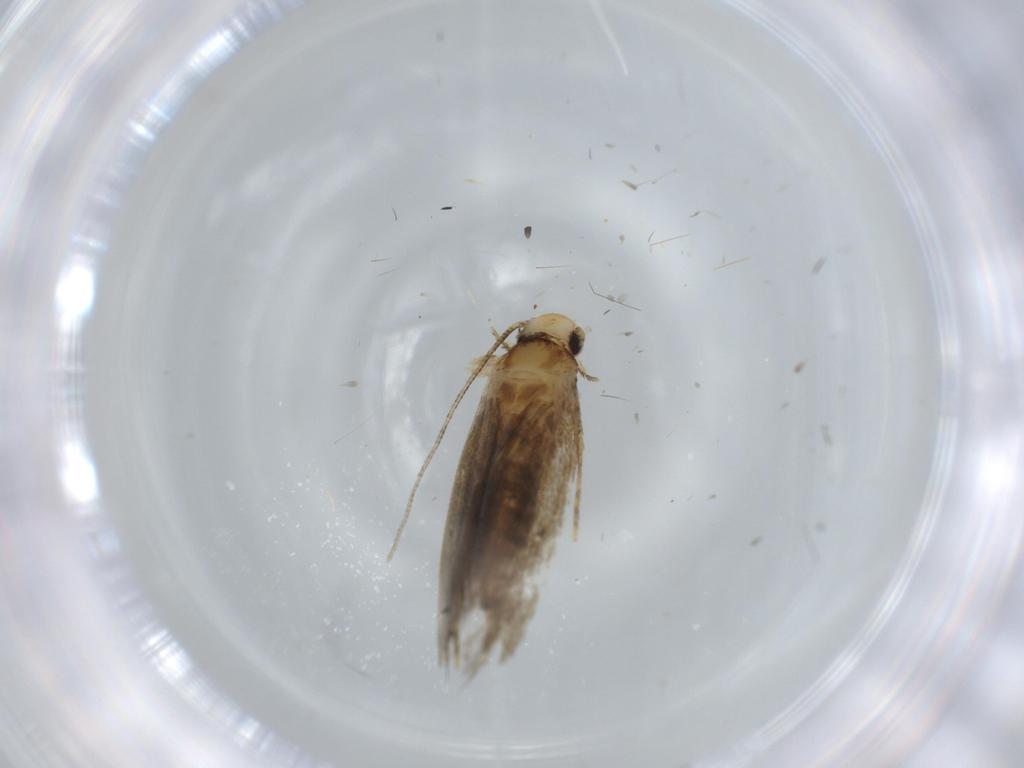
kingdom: Animalia
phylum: Arthropoda
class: Insecta
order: Lepidoptera
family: Tineidae
